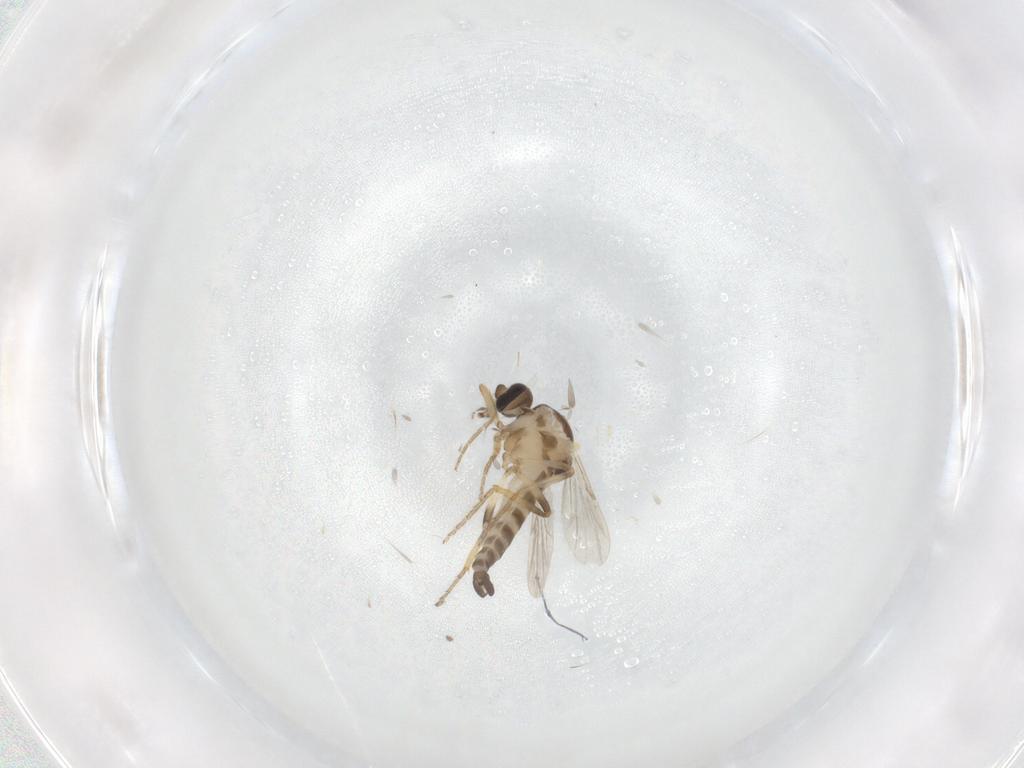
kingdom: Animalia
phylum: Arthropoda
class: Insecta
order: Diptera
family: Ceratopogonidae
